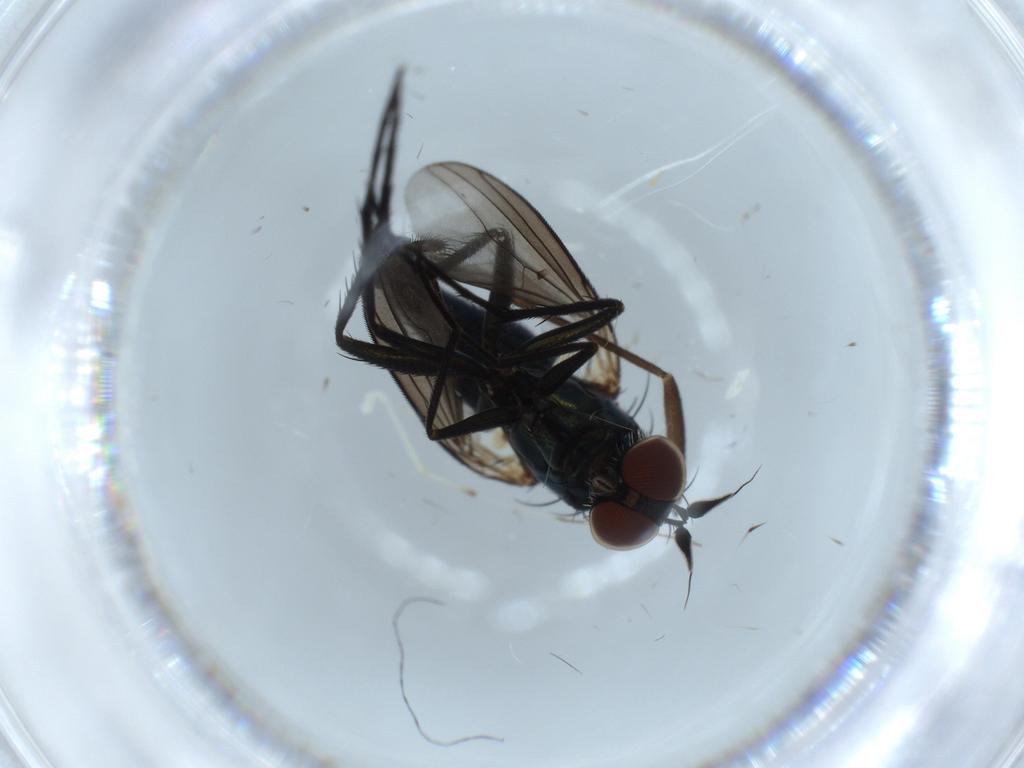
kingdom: Animalia
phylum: Arthropoda
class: Insecta
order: Diptera
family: Dolichopodidae
